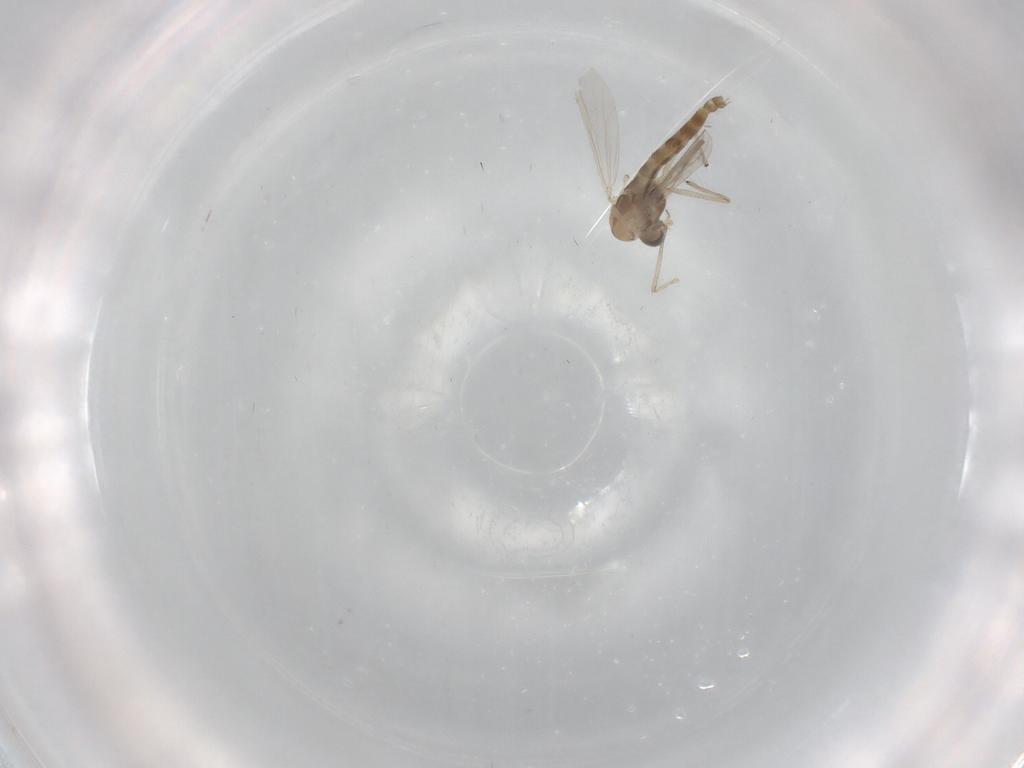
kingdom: Animalia
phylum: Arthropoda
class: Insecta
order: Diptera
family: Chironomidae
